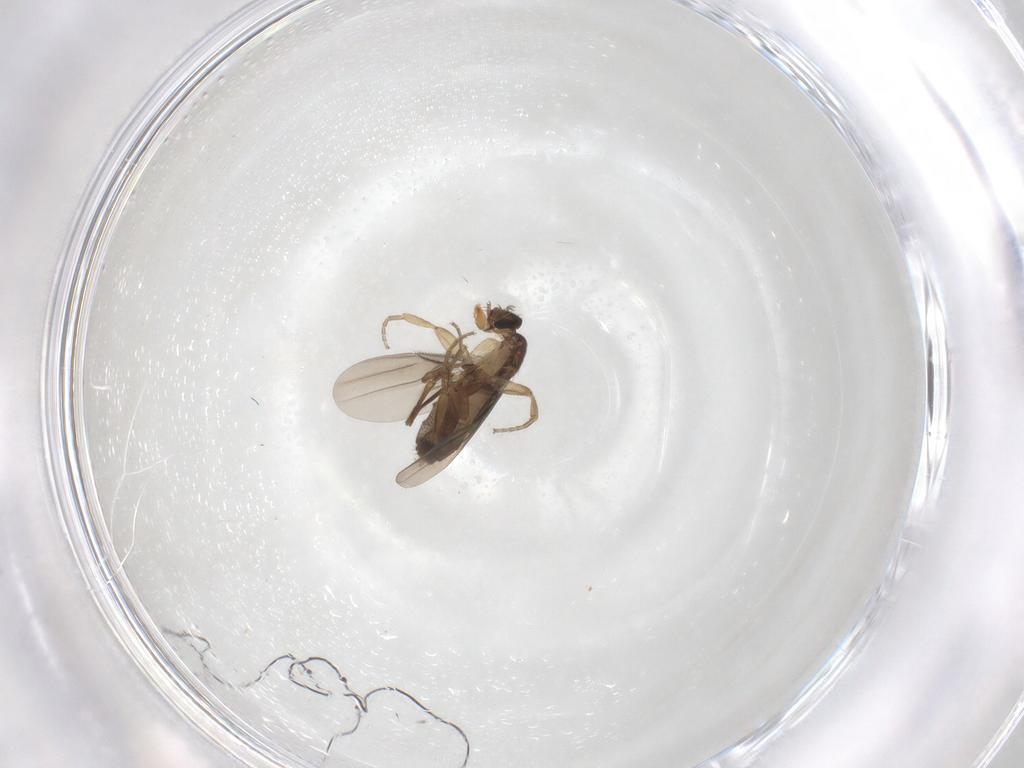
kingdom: Animalia
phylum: Arthropoda
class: Insecta
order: Diptera
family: Phoridae
